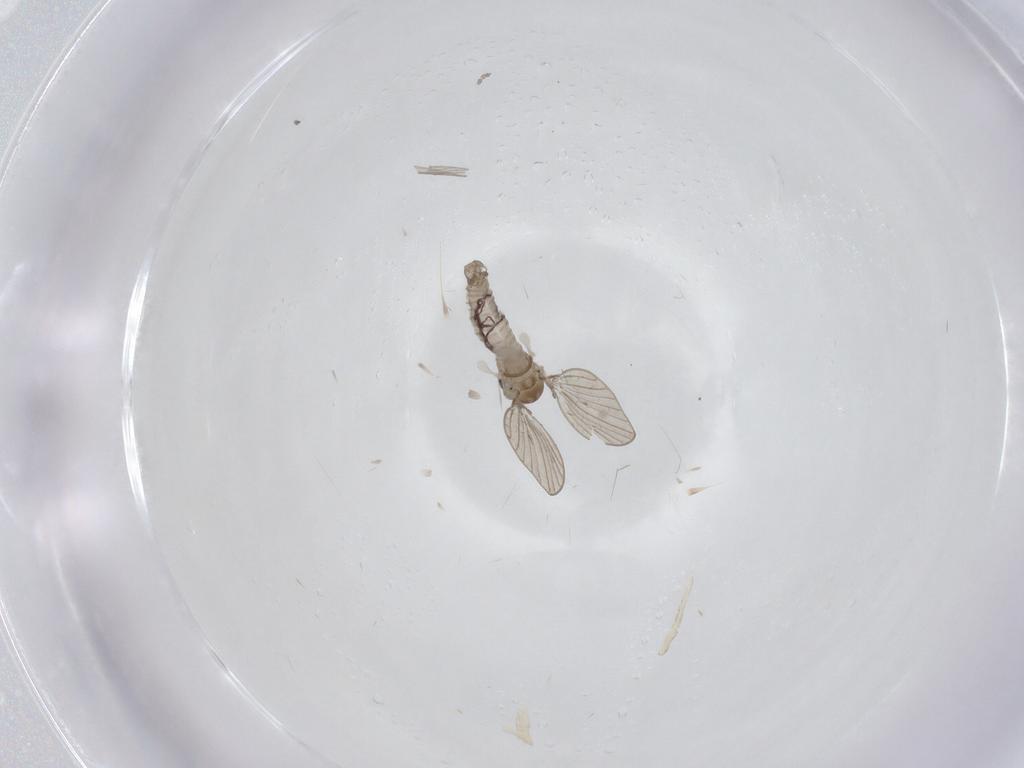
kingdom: Animalia
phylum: Arthropoda
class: Insecta
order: Diptera
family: Psychodidae
